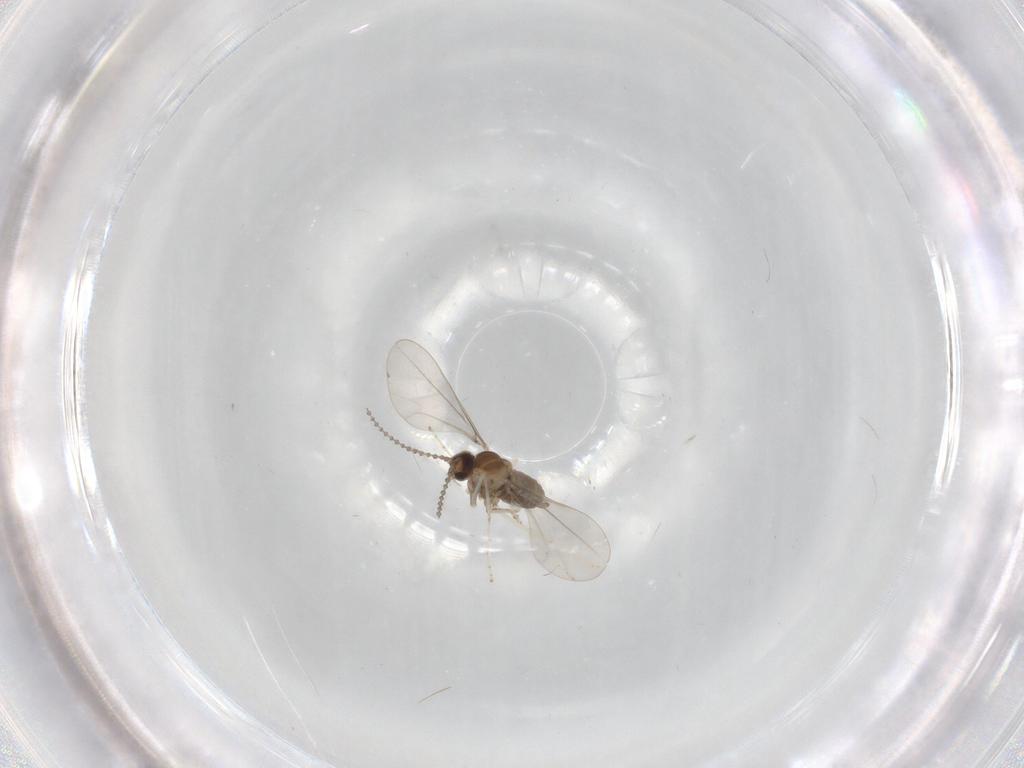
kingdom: Animalia
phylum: Arthropoda
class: Insecta
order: Diptera
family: Cecidomyiidae
